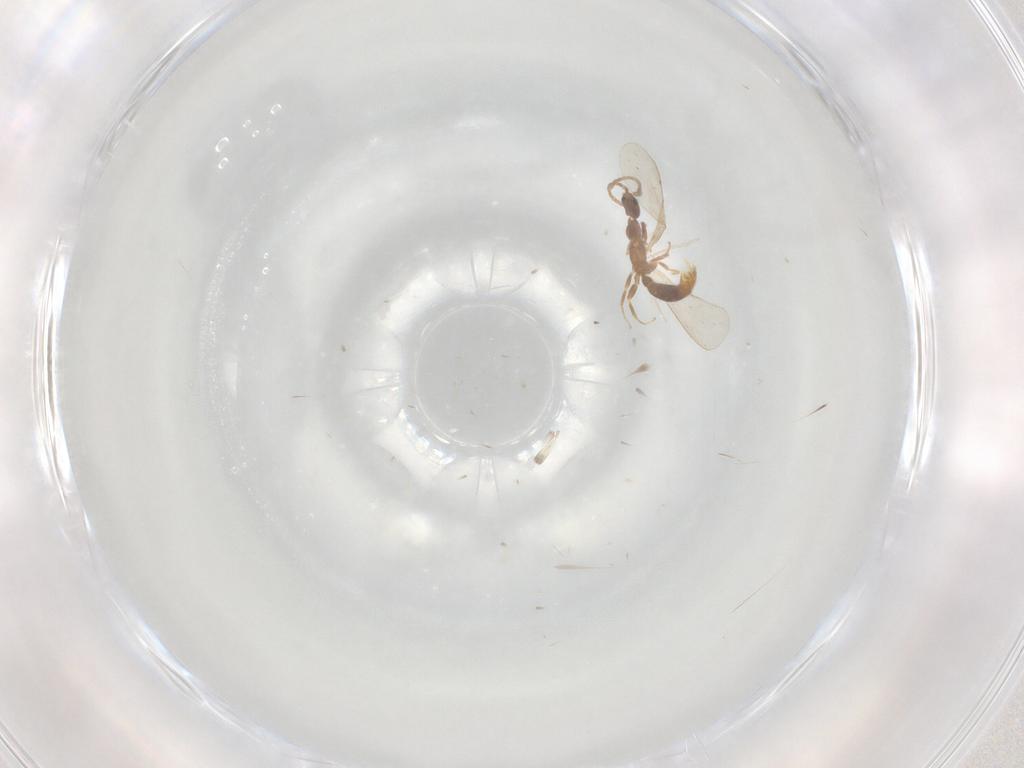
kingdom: Animalia
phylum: Arthropoda
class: Insecta
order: Hymenoptera
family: Formicidae
